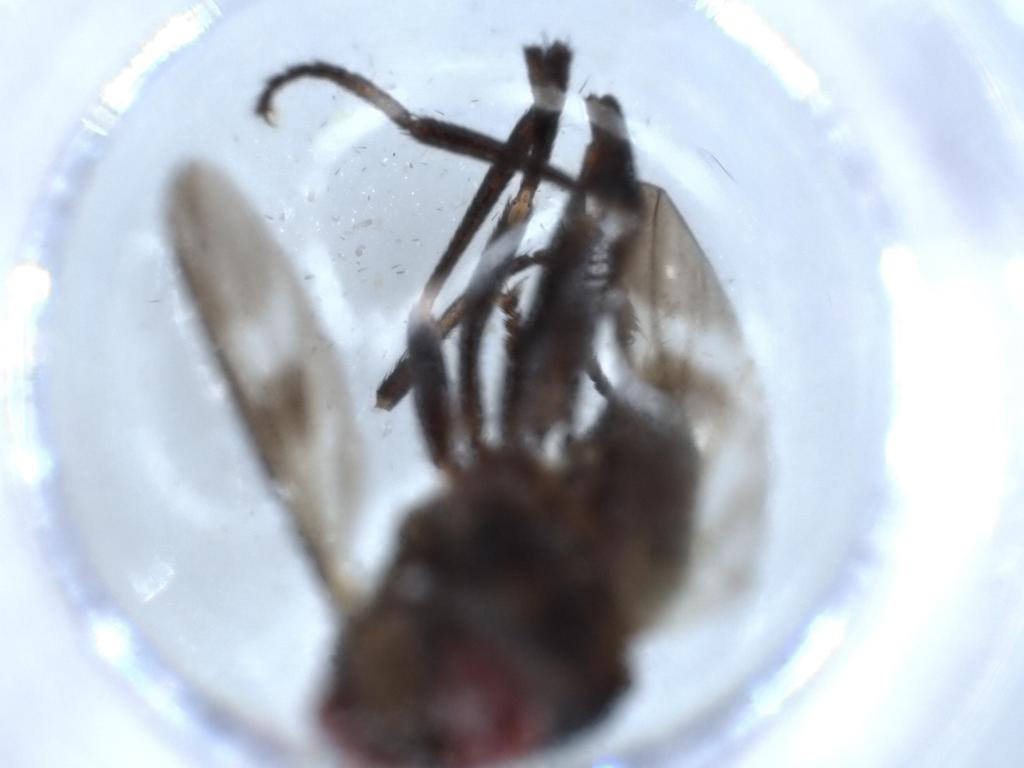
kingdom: Animalia
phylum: Arthropoda
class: Insecta
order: Diptera
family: Calliphoridae
